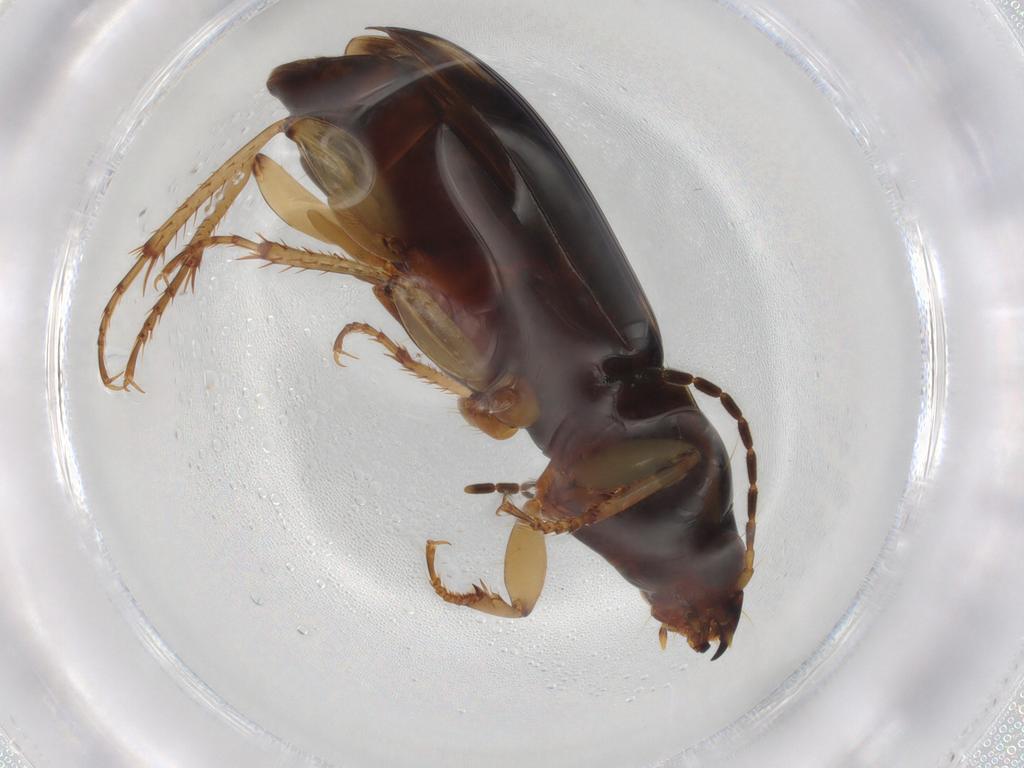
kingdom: Animalia
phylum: Arthropoda
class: Insecta
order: Coleoptera
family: Carabidae
